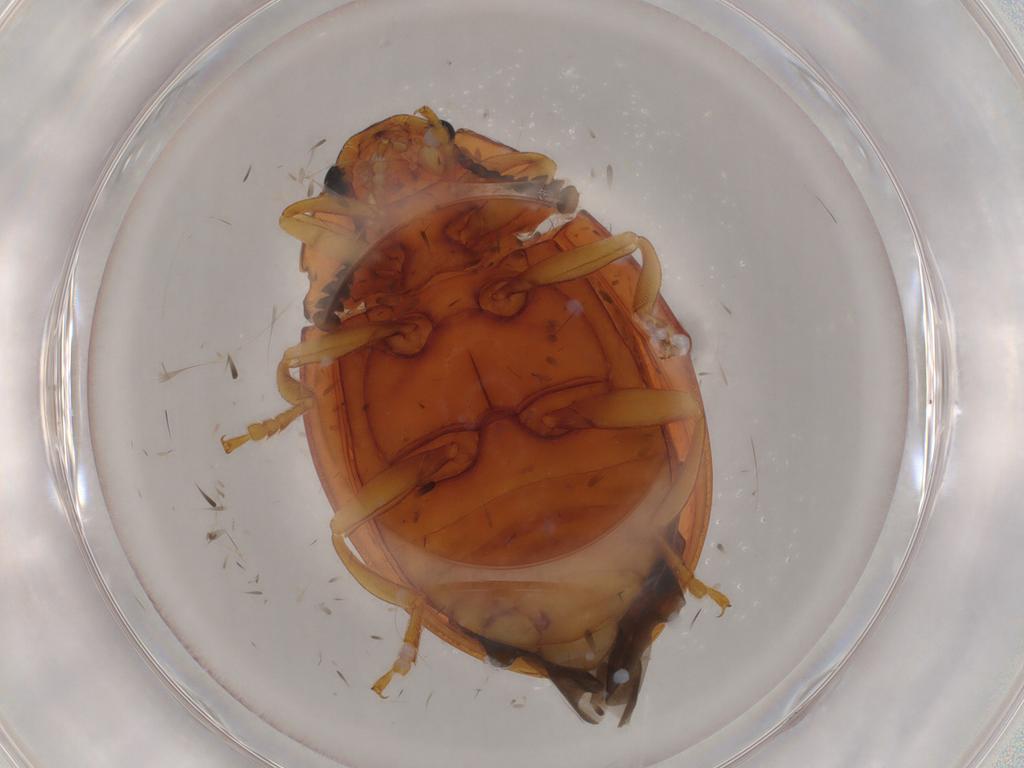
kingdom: Animalia
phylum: Arthropoda
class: Insecta
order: Coleoptera
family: Erotylidae
